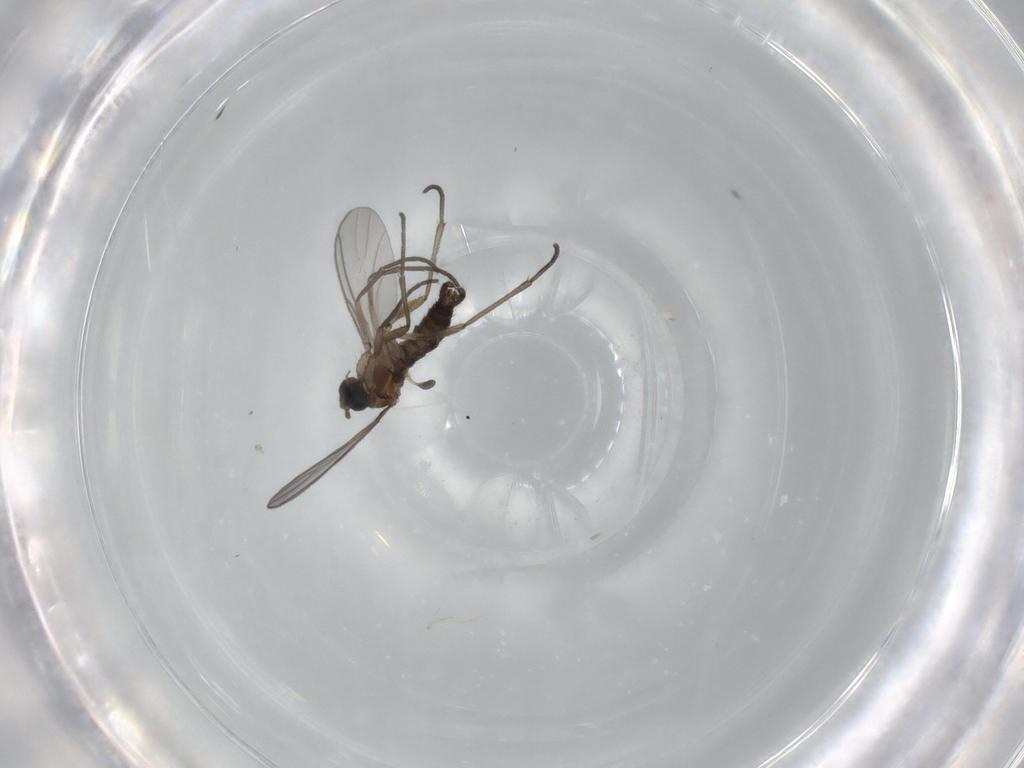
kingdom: Animalia
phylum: Arthropoda
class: Insecta
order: Diptera
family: Sciaridae
